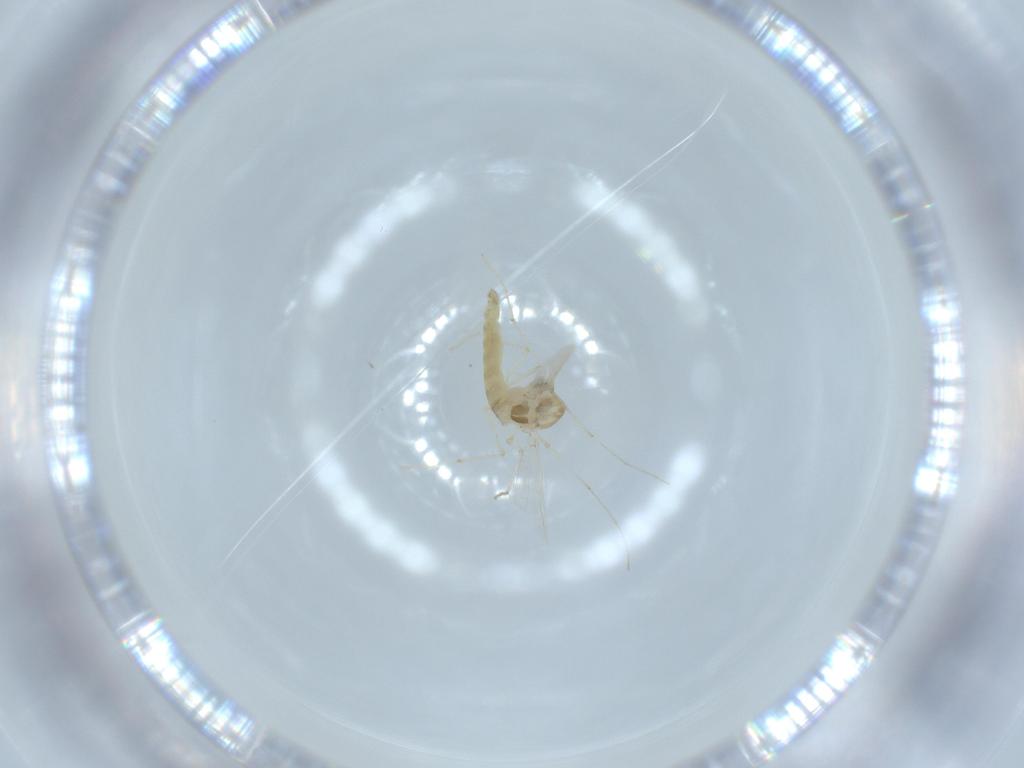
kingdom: Animalia
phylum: Arthropoda
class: Insecta
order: Diptera
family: Chironomidae
